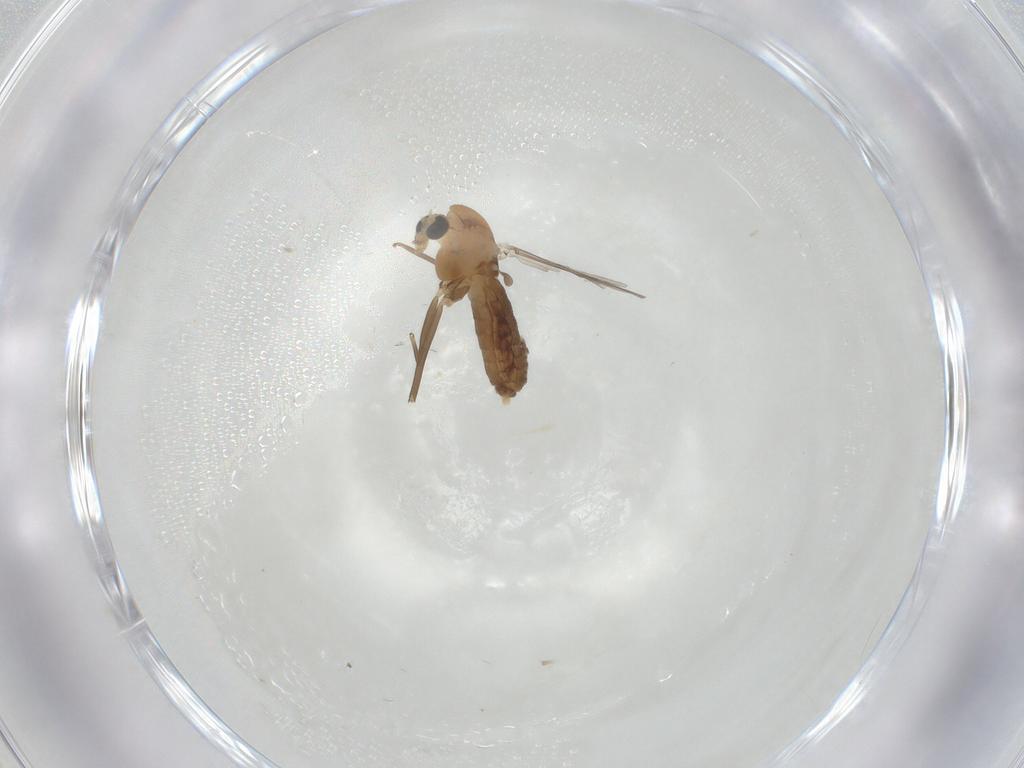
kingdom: Animalia
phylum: Arthropoda
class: Insecta
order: Diptera
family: Chironomidae
